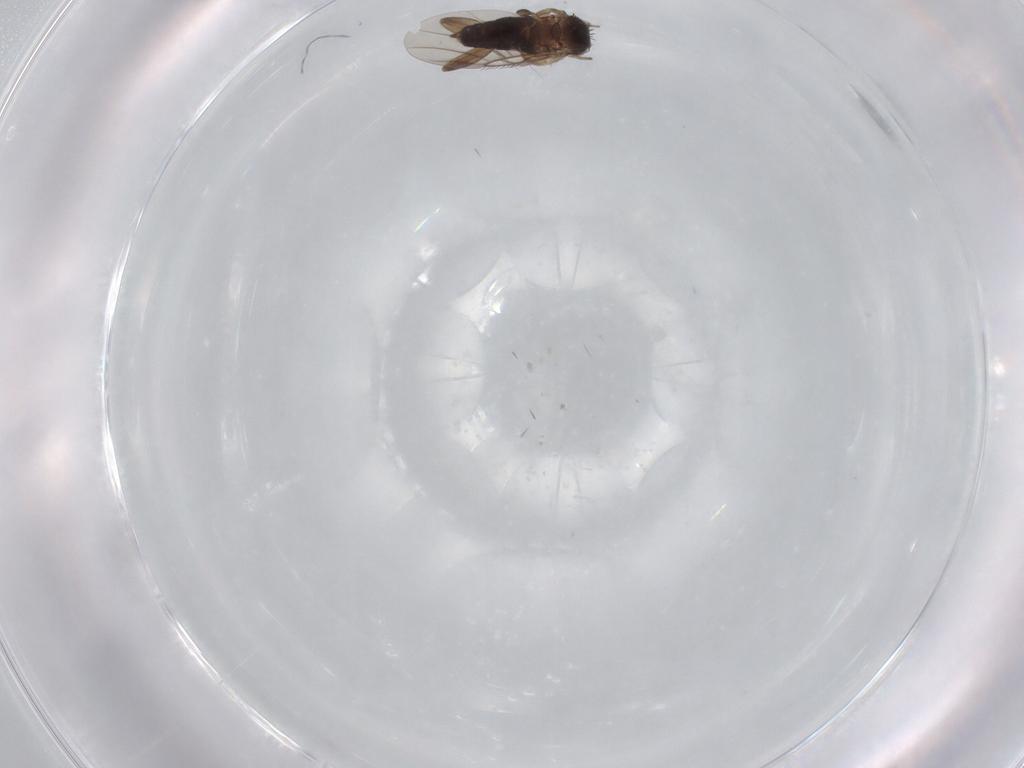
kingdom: Animalia
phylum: Arthropoda
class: Insecta
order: Diptera
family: Phoridae
